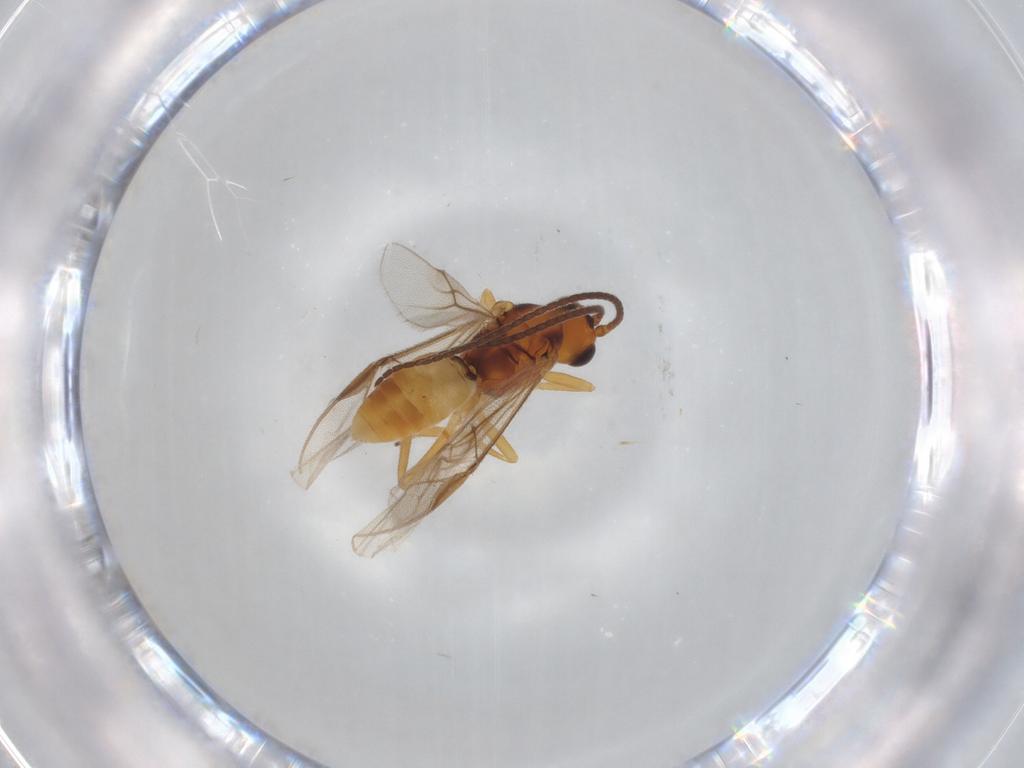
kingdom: Animalia
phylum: Arthropoda
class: Insecta
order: Hymenoptera
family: Braconidae
